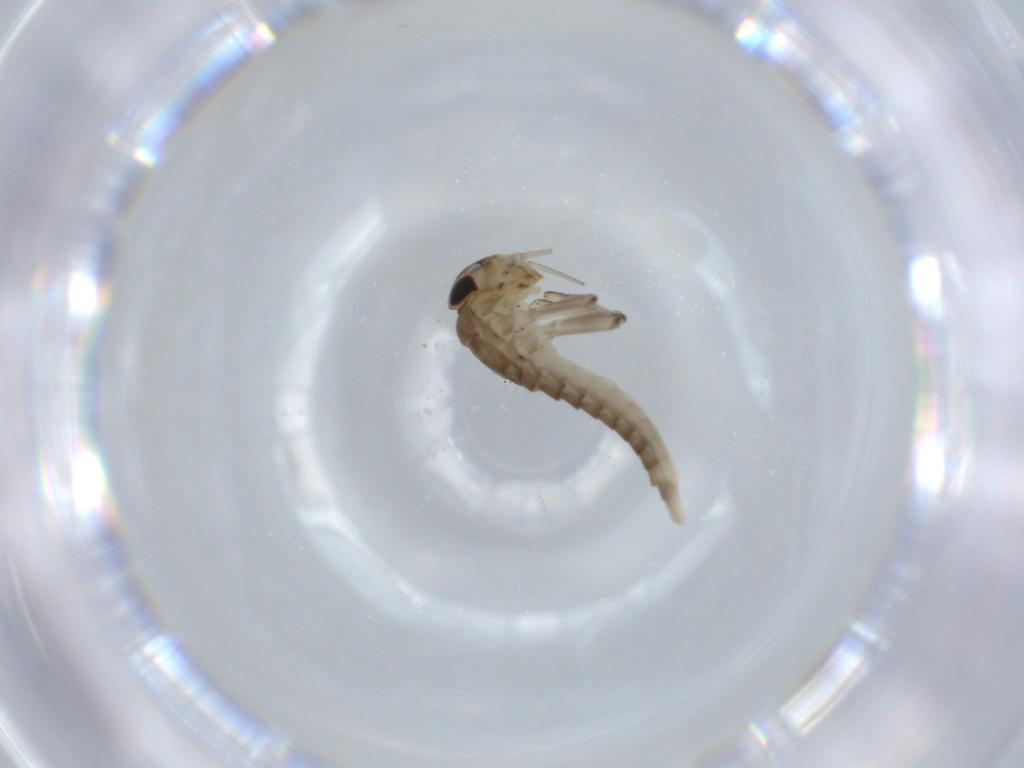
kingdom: Animalia
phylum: Arthropoda
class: Insecta
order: Ephemeroptera
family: Baetidae
